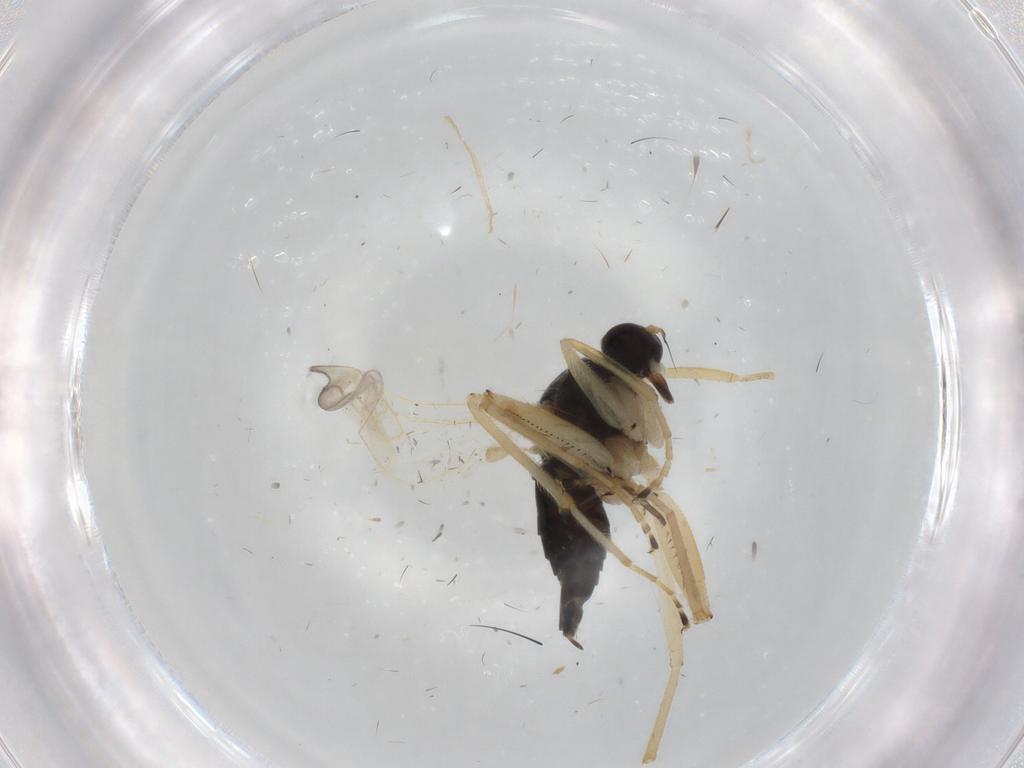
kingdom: Animalia
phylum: Arthropoda
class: Insecta
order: Diptera
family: Sciaridae
